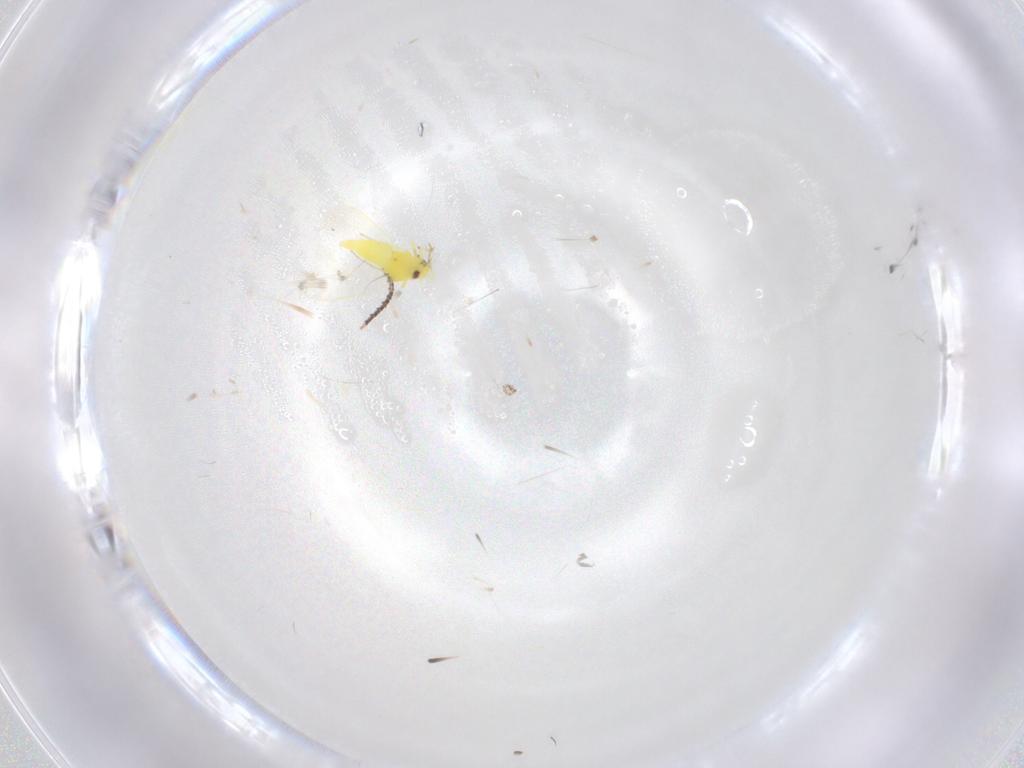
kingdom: Animalia
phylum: Arthropoda
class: Insecta
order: Hemiptera
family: Aleyrodidae
